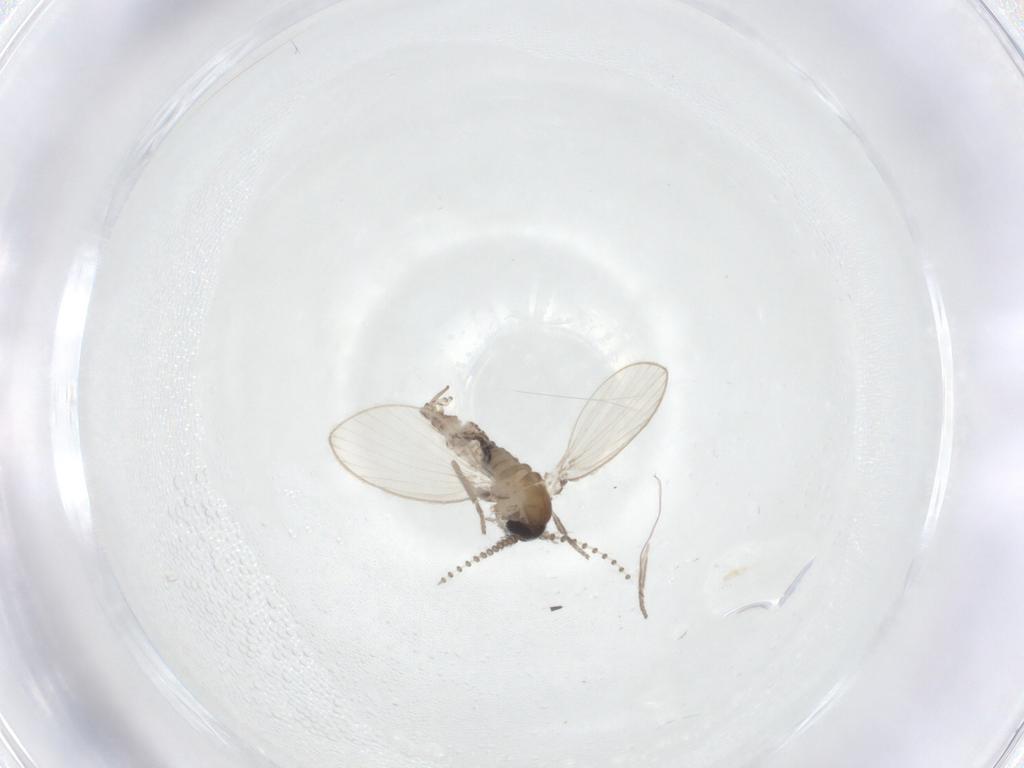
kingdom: Animalia
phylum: Arthropoda
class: Insecta
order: Diptera
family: Psychodidae
